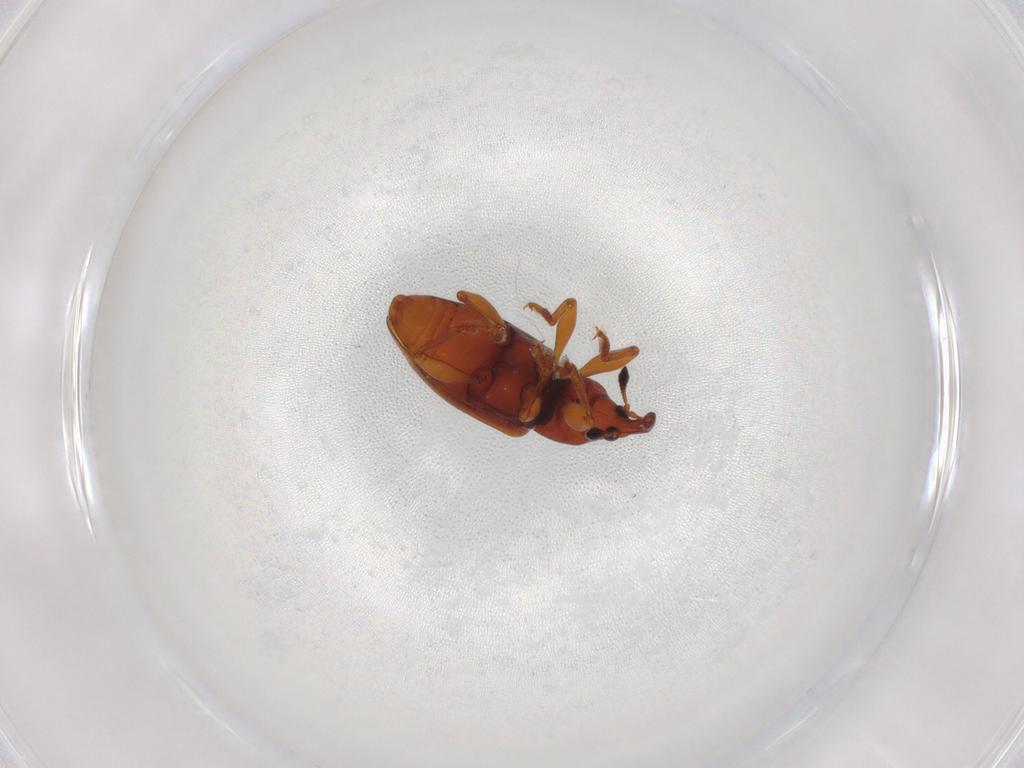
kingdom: Animalia
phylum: Arthropoda
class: Insecta
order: Coleoptera
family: Curculionidae
